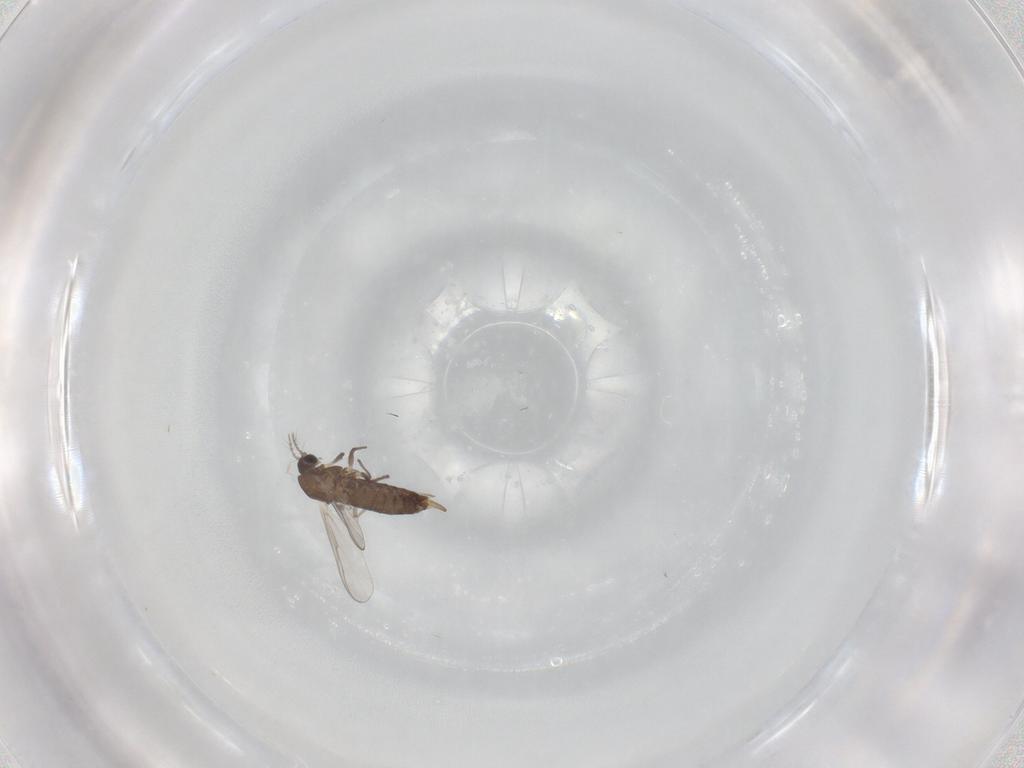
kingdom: Animalia
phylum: Arthropoda
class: Insecta
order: Diptera
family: Chironomidae
